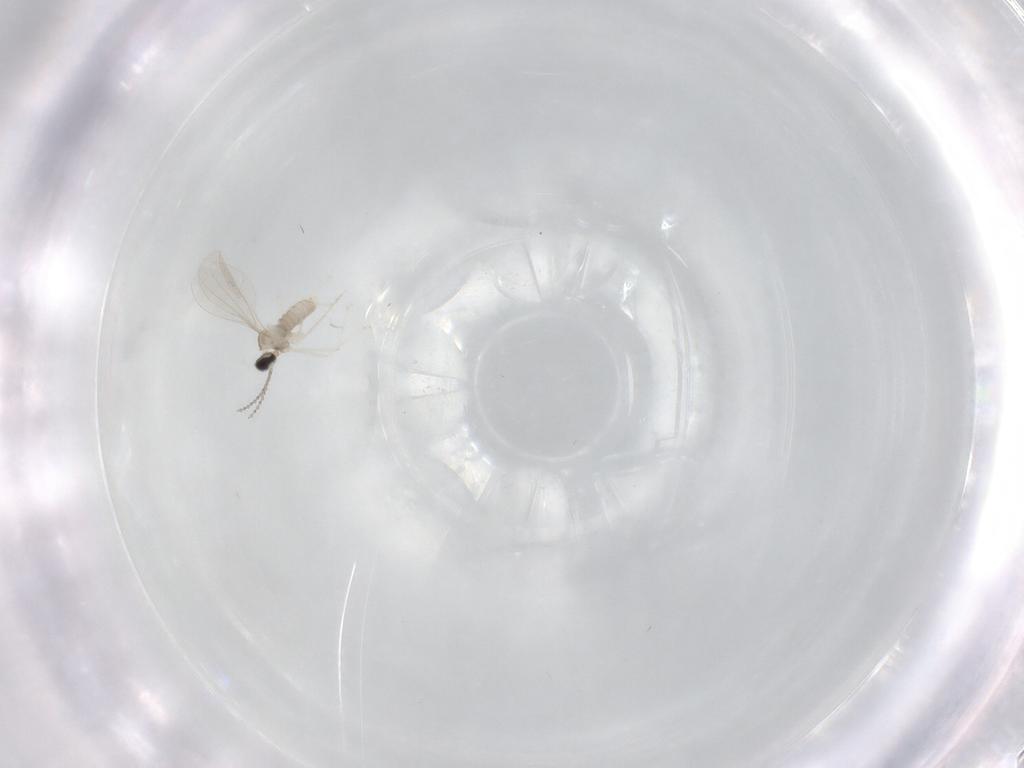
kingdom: Animalia
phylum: Arthropoda
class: Insecta
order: Diptera
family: Cecidomyiidae
